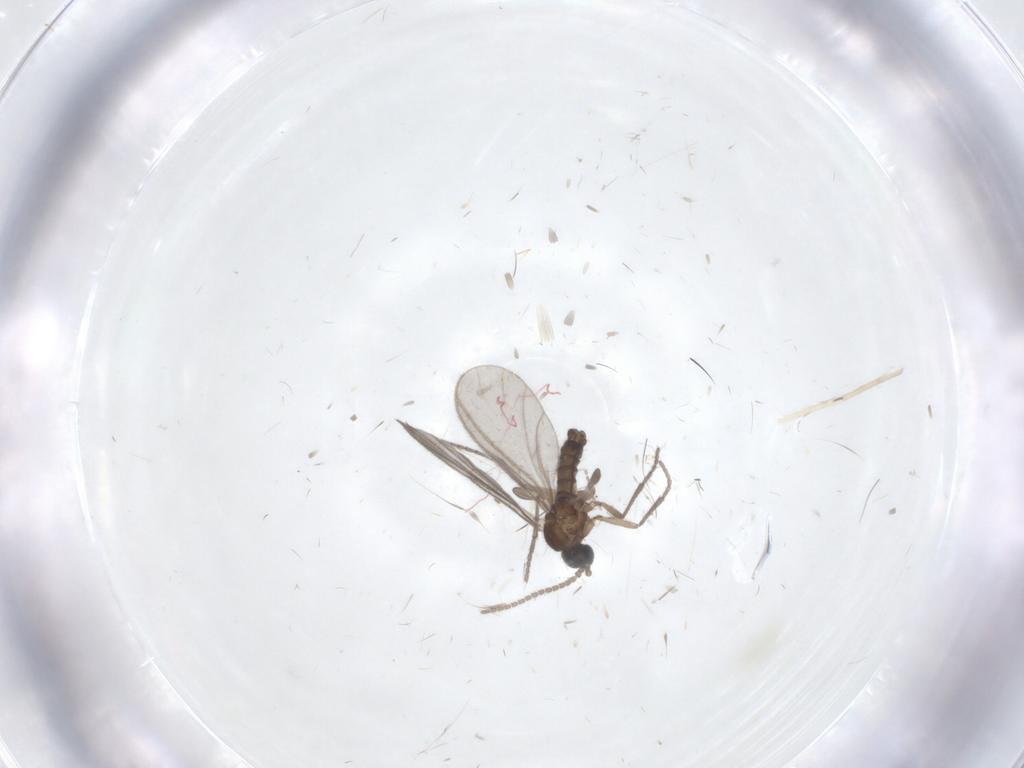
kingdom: Animalia
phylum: Arthropoda
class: Insecta
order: Diptera
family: Sciaridae
